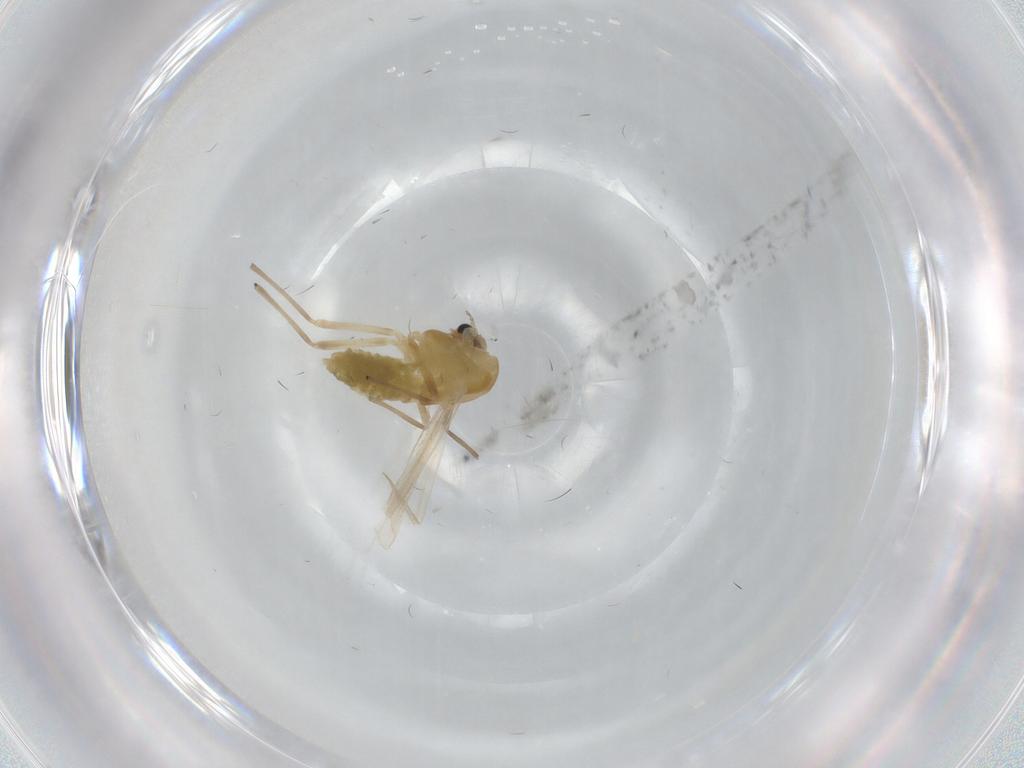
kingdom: Animalia
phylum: Arthropoda
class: Insecta
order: Diptera
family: Chironomidae
